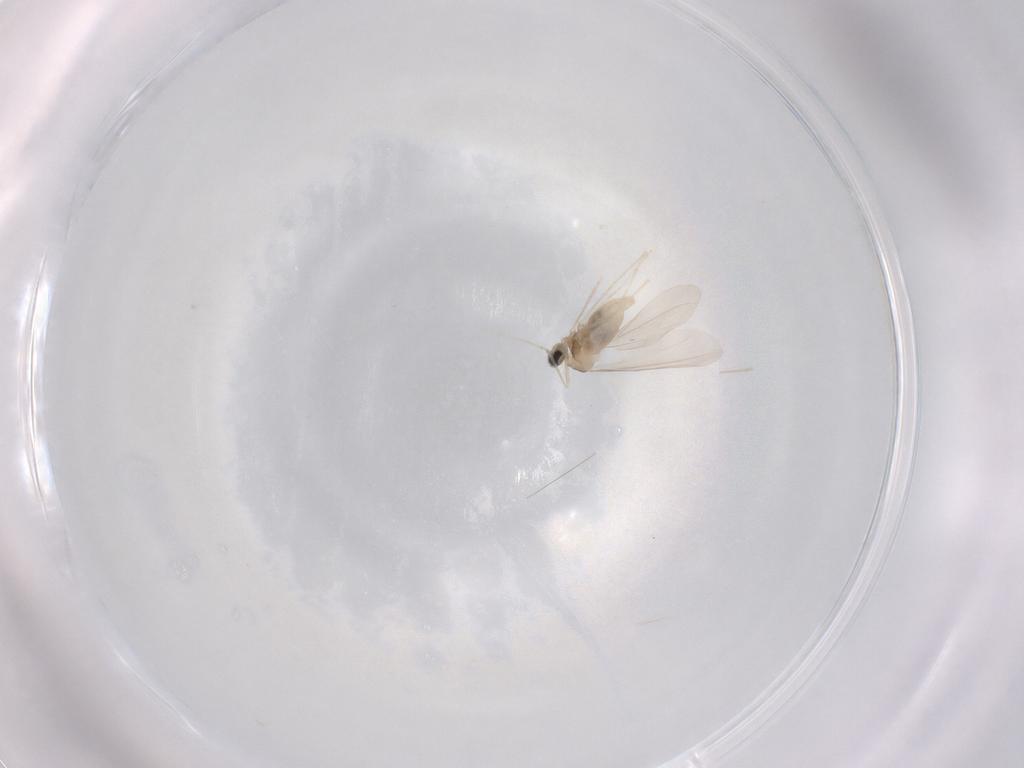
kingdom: Animalia
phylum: Arthropoda
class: Insecta
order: Diptera
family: Cecidomyiidae
